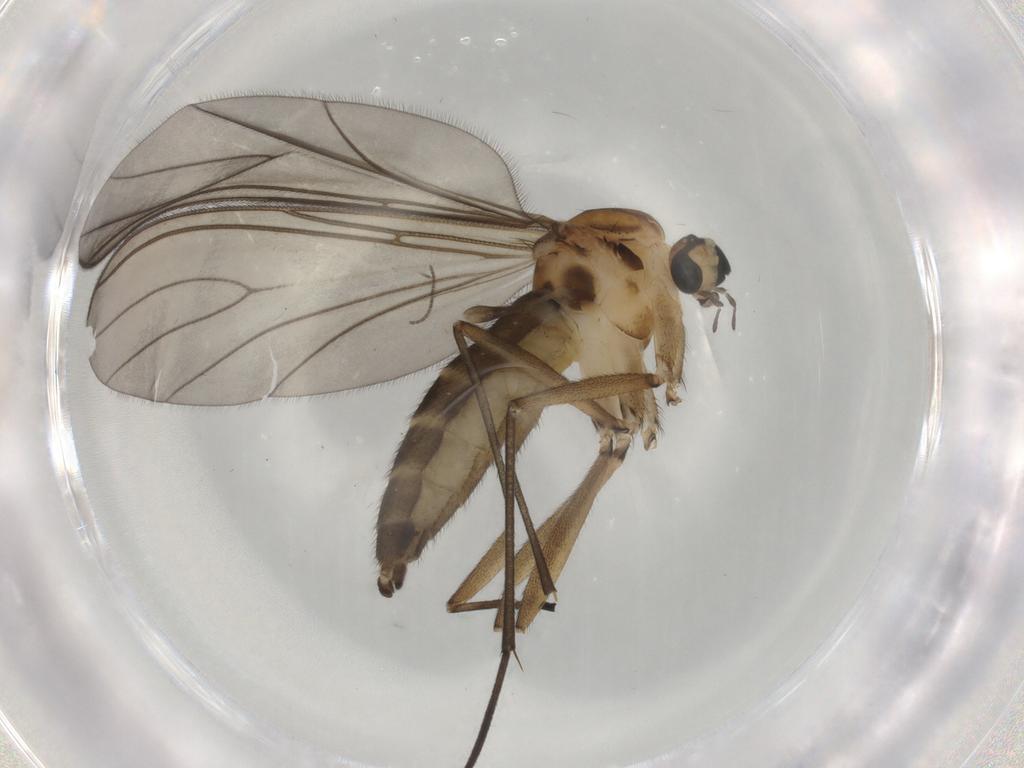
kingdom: Animalia
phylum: Arthropoda
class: Insecta
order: Diptera
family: Sciaridae
